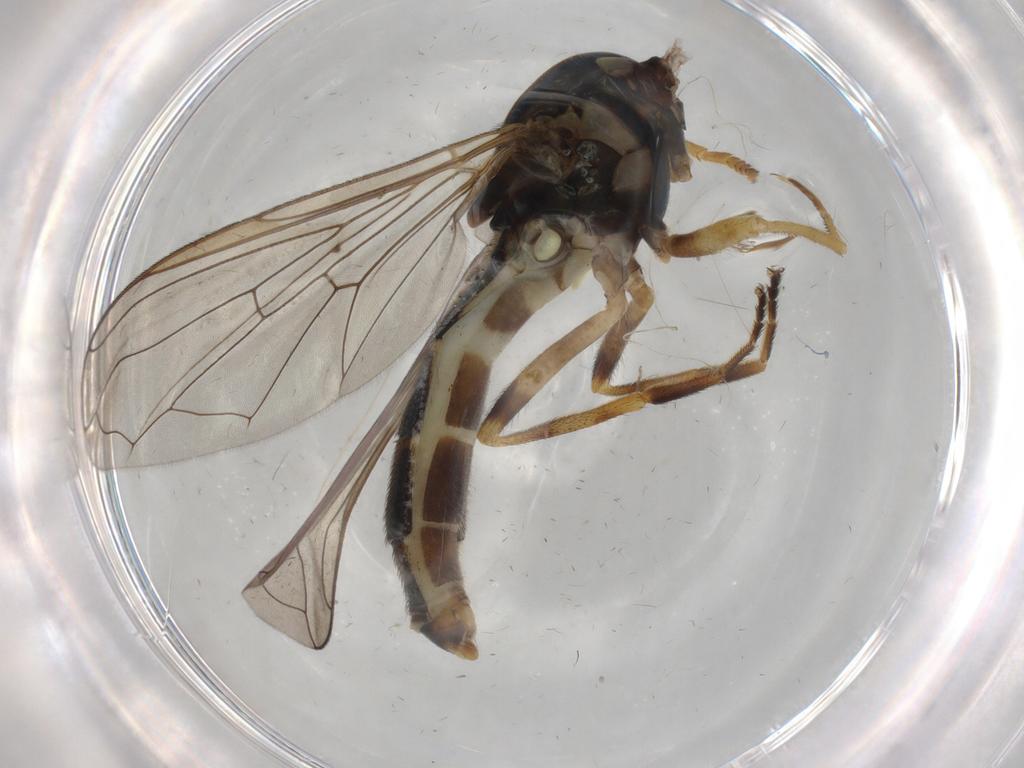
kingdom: Animalia
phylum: Arthropoda
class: Insecta
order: Diptera
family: Syrphidae
